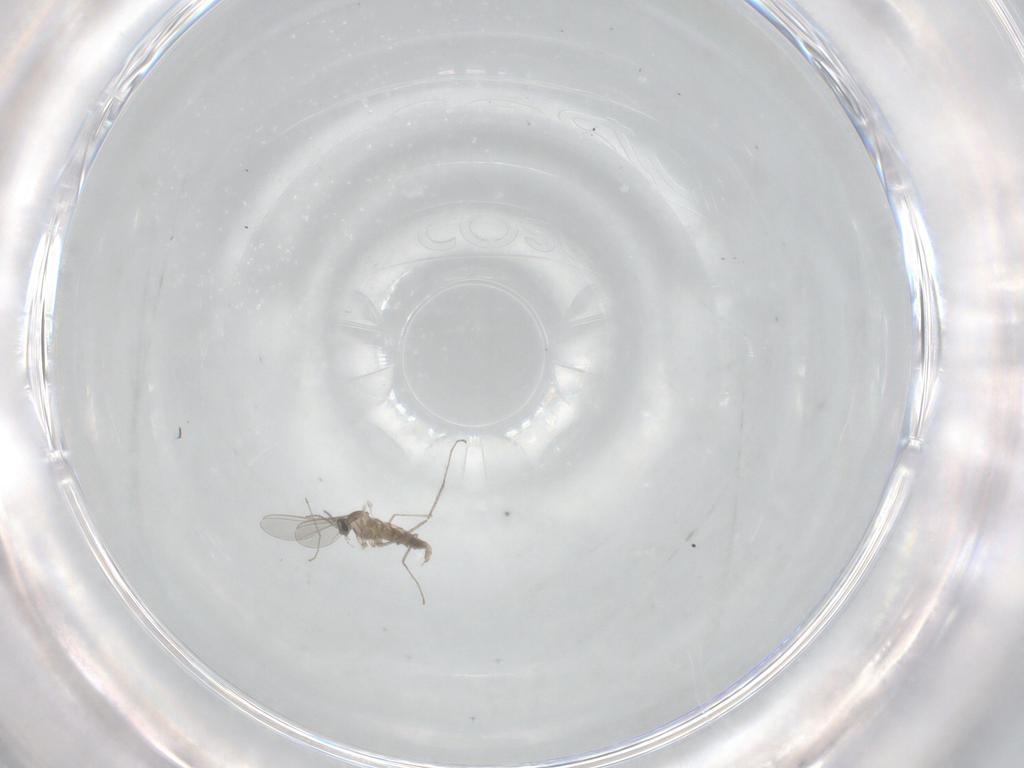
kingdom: Animalia
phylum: Arthropoda
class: Insecta
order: Diptera
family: Cecidomyiidae
